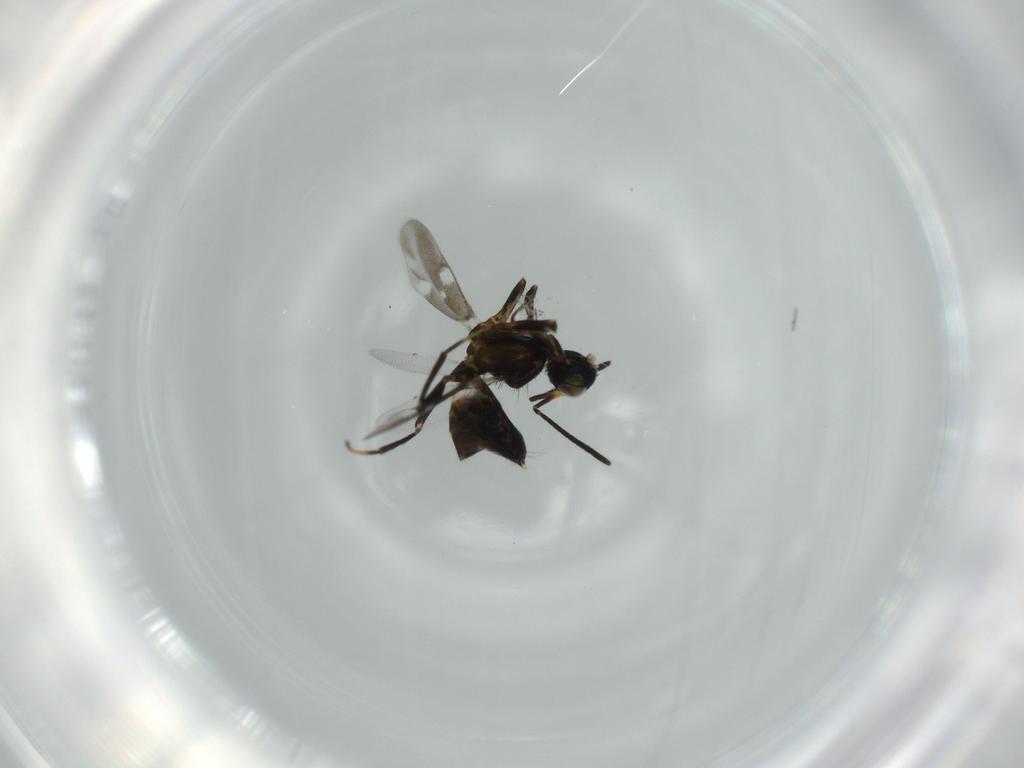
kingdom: Animalia
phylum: Arthropoda
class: Insecta
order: Hymenoptera
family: Eupelmidae
